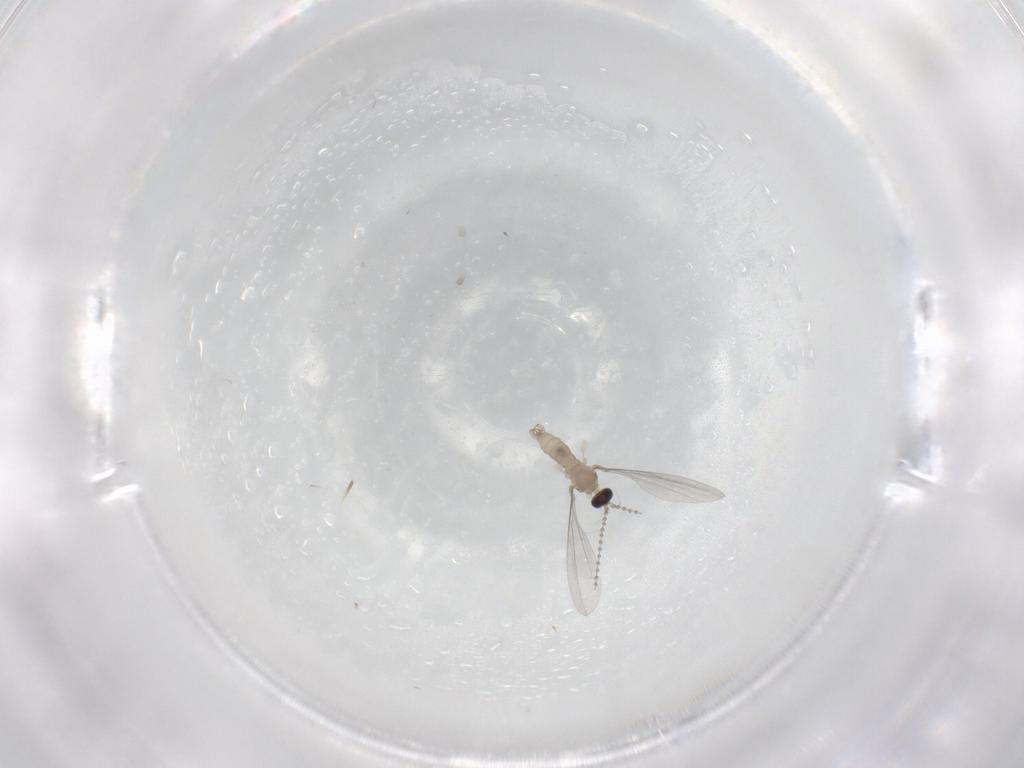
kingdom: Animalia
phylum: Arthropoda
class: Insecta
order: Diptera
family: Cecidomyiidae
